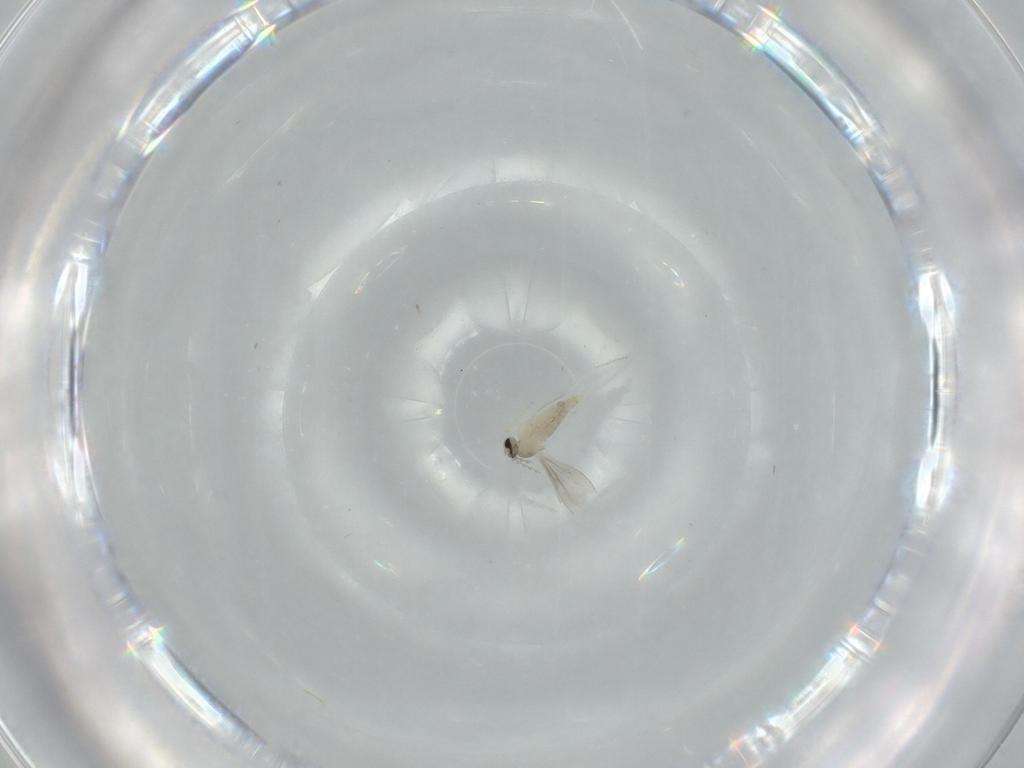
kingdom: Animalia
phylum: Arthropoda
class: Insecta
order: Diptera
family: Cecidomyiidae
